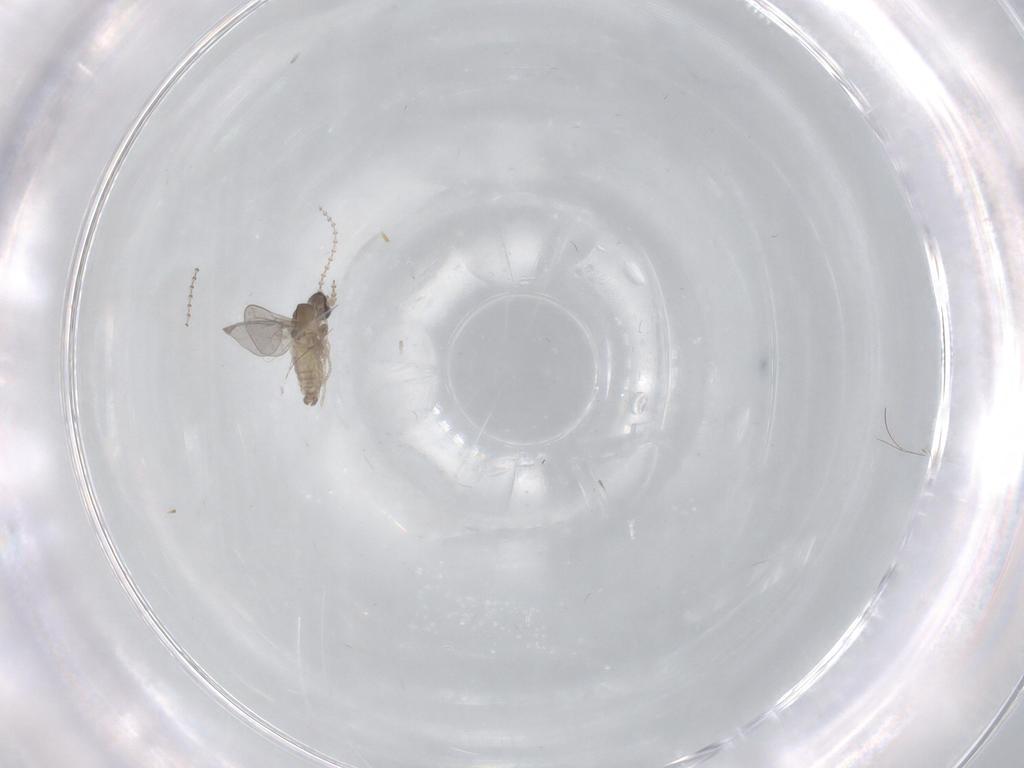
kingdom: Animalia
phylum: Arthropoda
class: Insecta
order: Diptera
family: Cecidomyiidae
